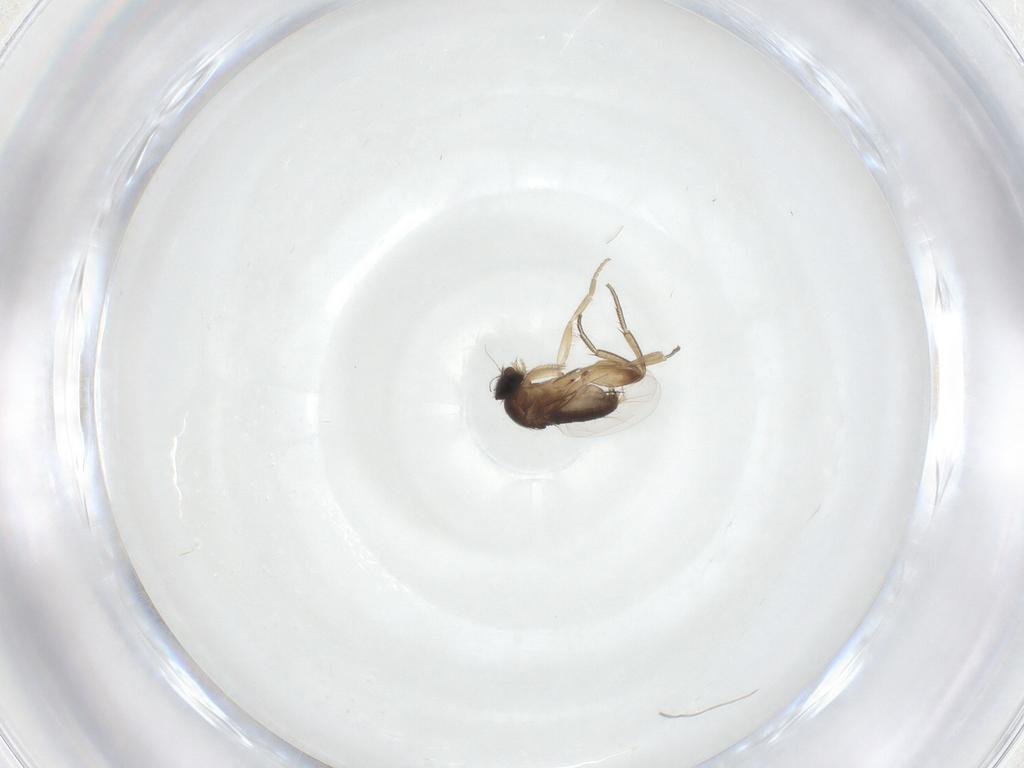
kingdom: Animalia
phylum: Arthropoda
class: Insecta
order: Diptera
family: Phoridae
